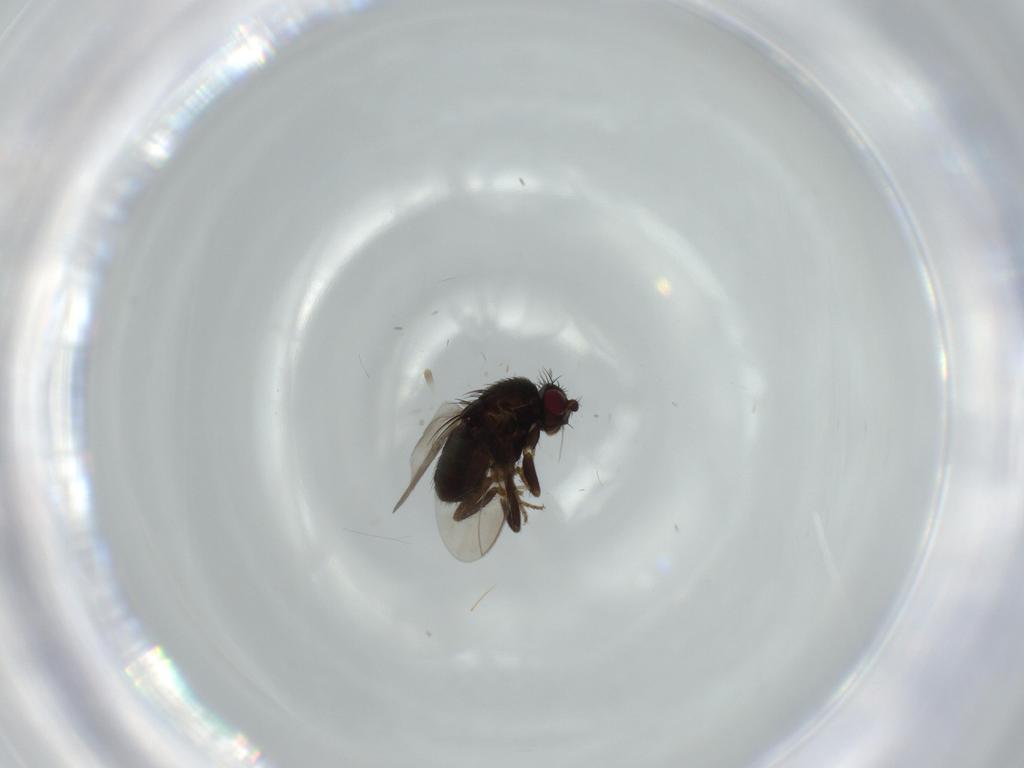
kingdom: Animalia
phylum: Arthropoda
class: Insecta
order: Diptera
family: Sphaeroceridae
